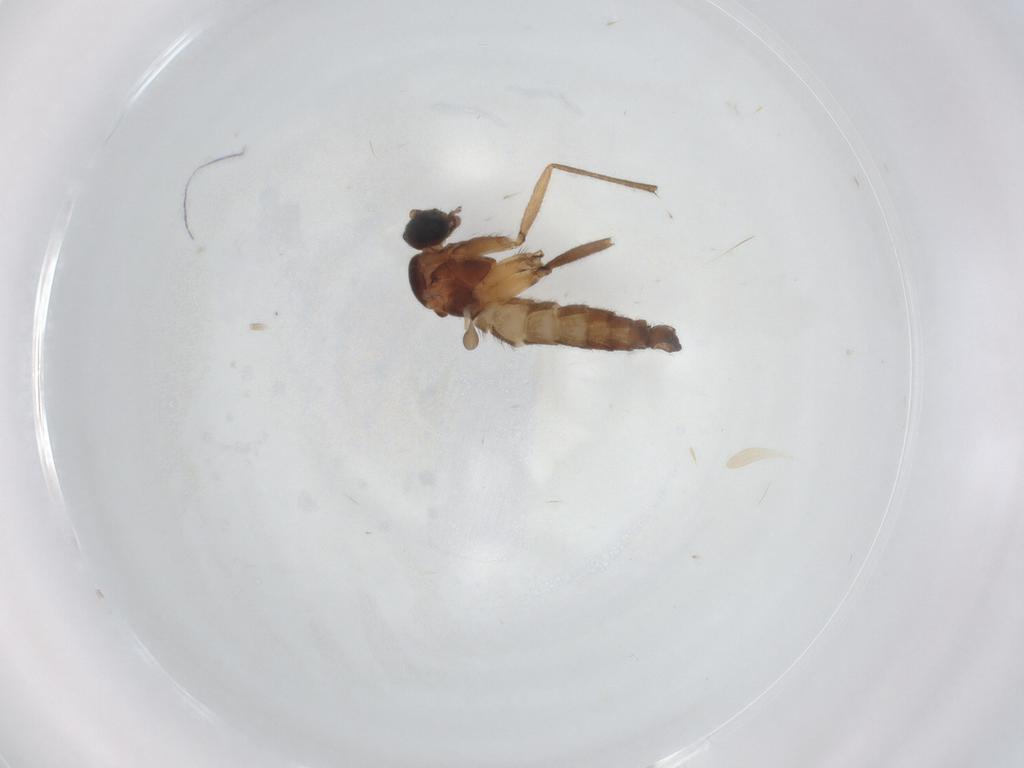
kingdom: Animalia
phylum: Arthropoda
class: Insecta
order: Diptera
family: Sciaridae
